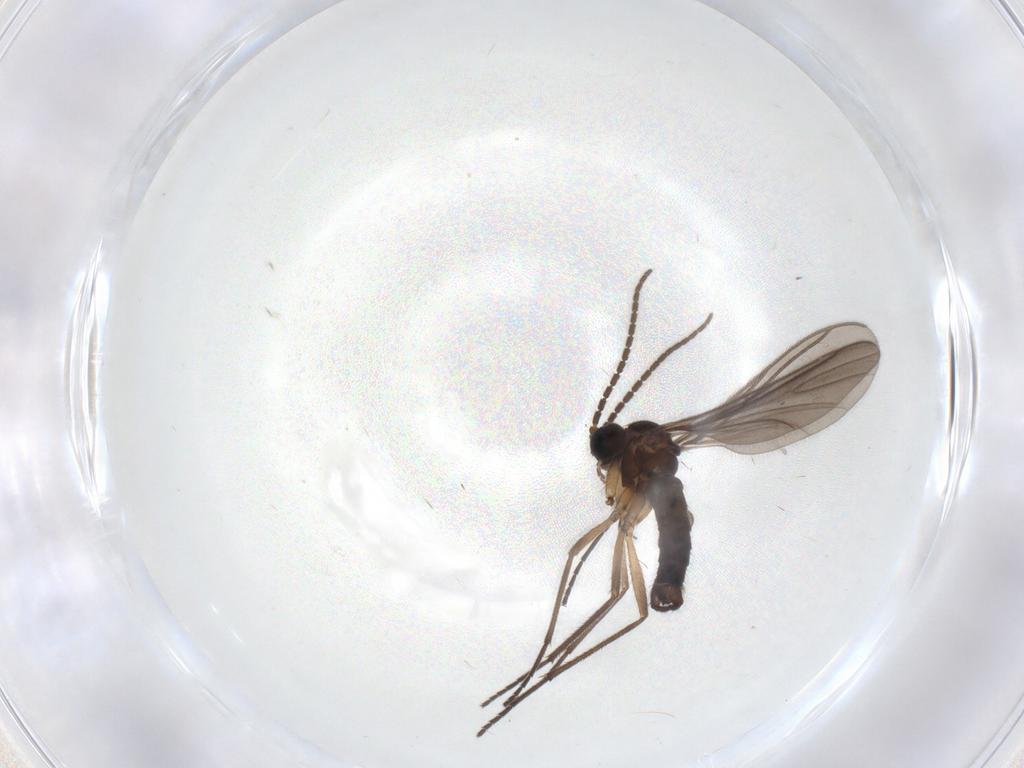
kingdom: Animalia
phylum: Arthropoda
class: Insecta
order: Diptera
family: Sciaridae
